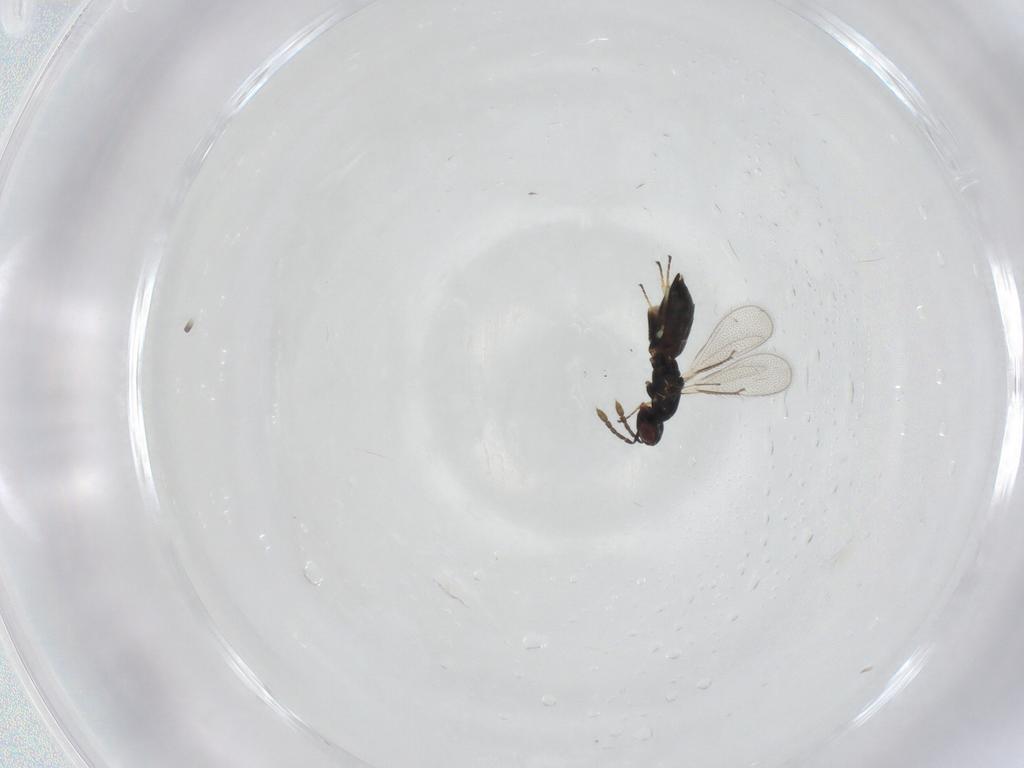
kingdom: Animalia
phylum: Arthropoda
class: Insecta
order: Hymenoptera
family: Eulophidae
